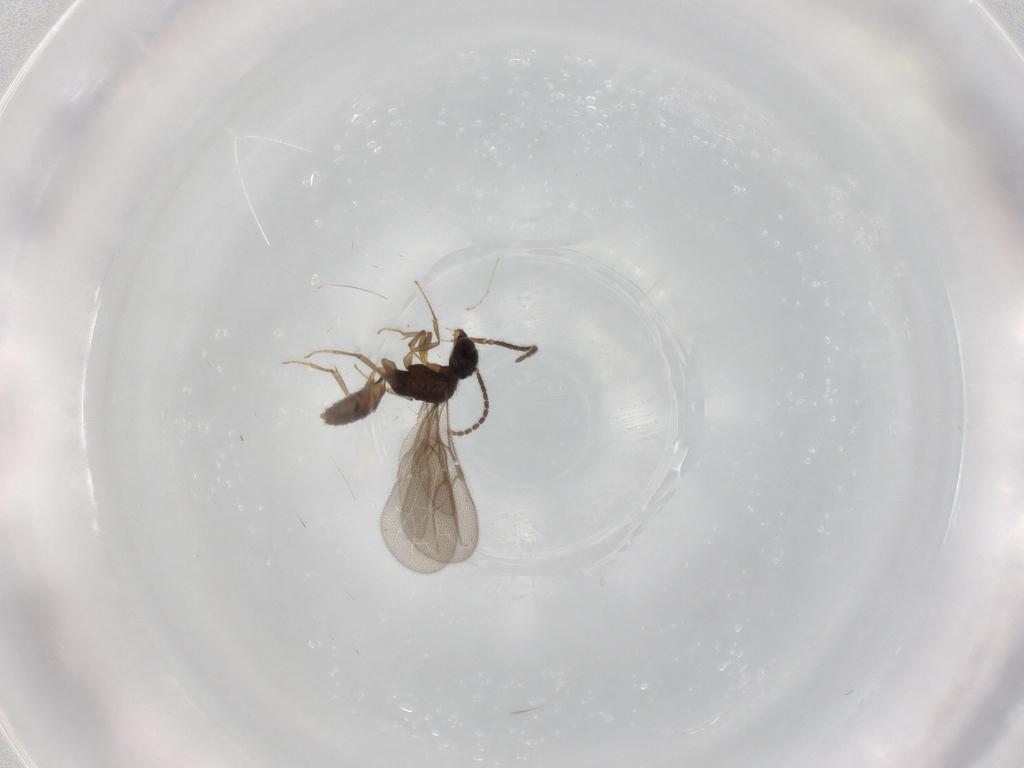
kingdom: Animalia
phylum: Arthropoda
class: Insecta
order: Hymenoptera
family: Bethylidae
